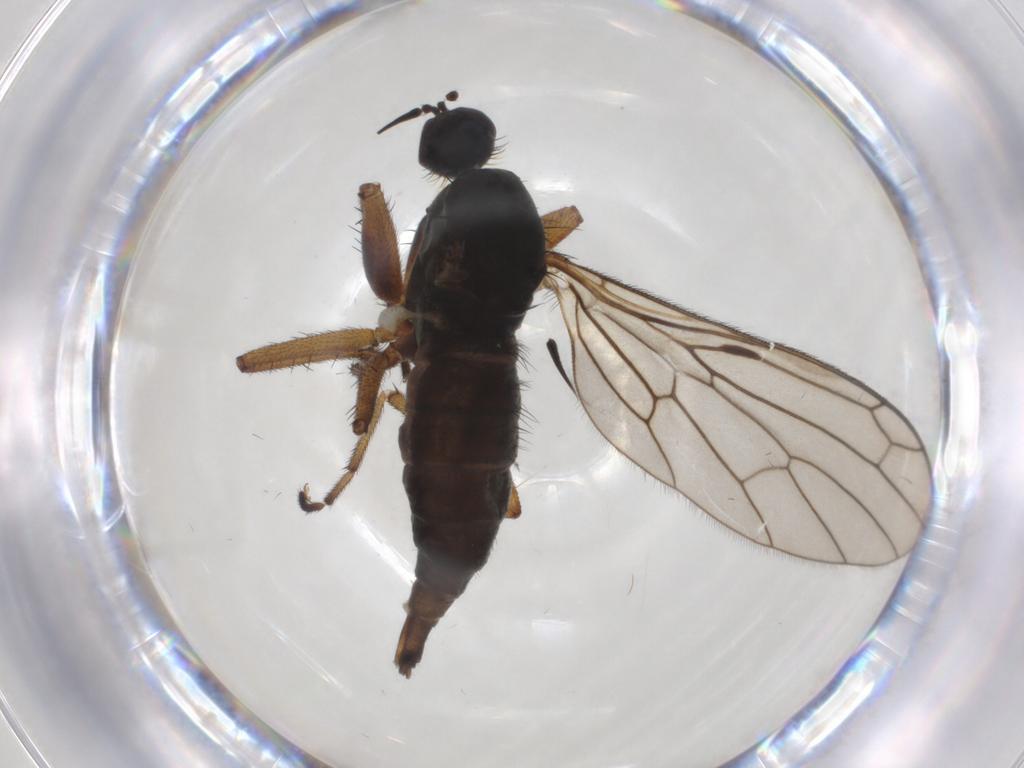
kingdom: Animalia
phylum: Arthropoda
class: Insecta
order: Diptera
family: Empididae
